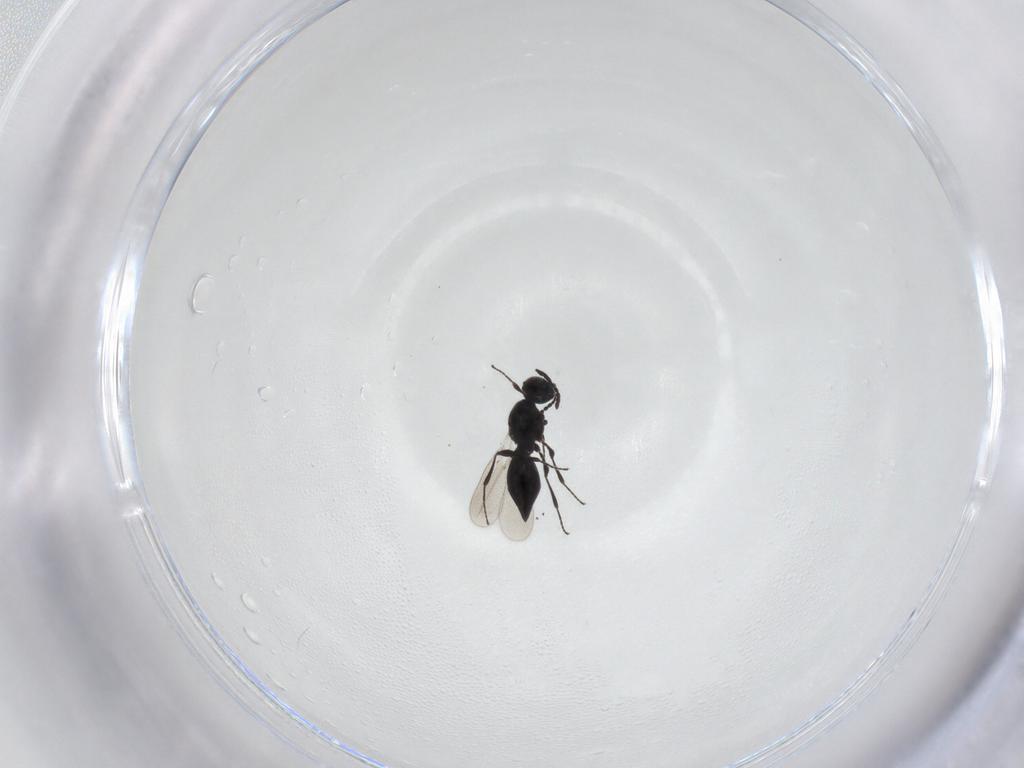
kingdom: Animalia
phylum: Arthropoda
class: Insecta
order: Hymenoptera
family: Platygastridae
